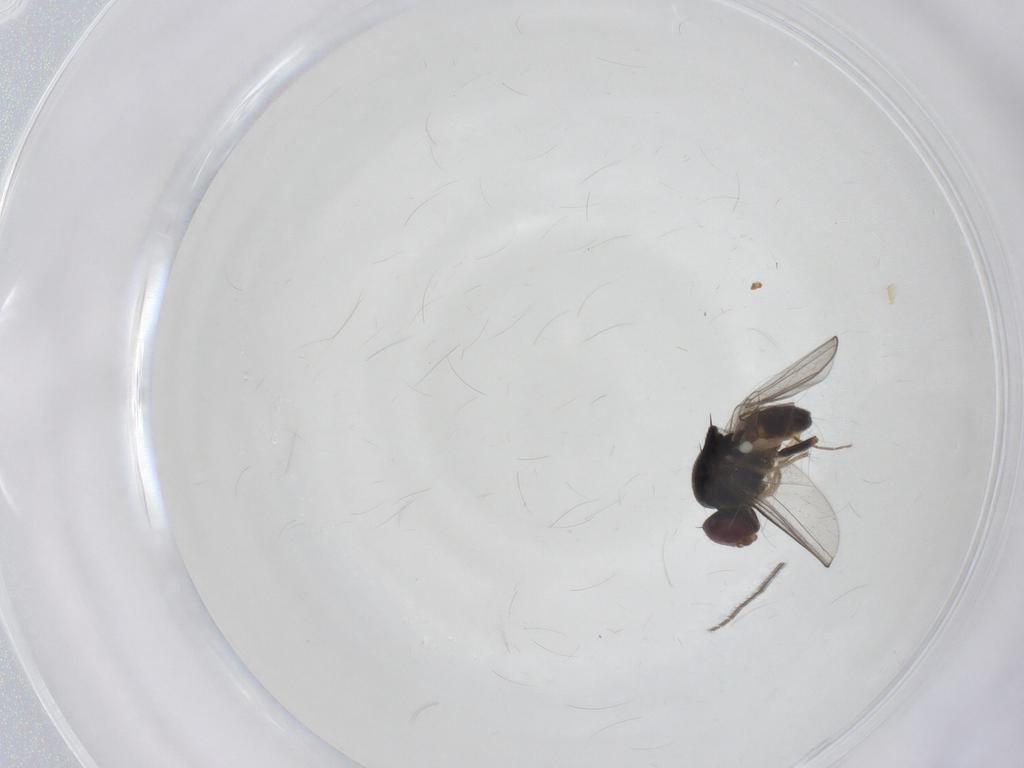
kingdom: Animalia
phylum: Arthropoda
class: Insecta
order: Diptera
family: Chloropidae
